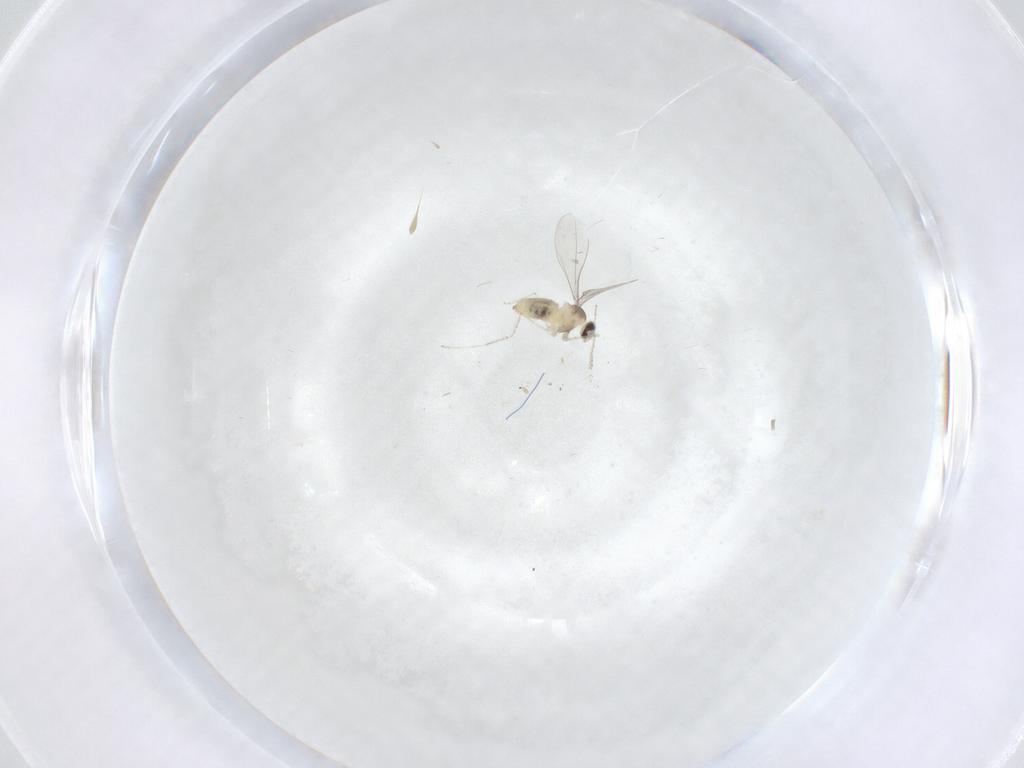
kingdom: Animalia
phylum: Arthropoda
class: Insecta
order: Diptera
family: Cecidomyiidae
